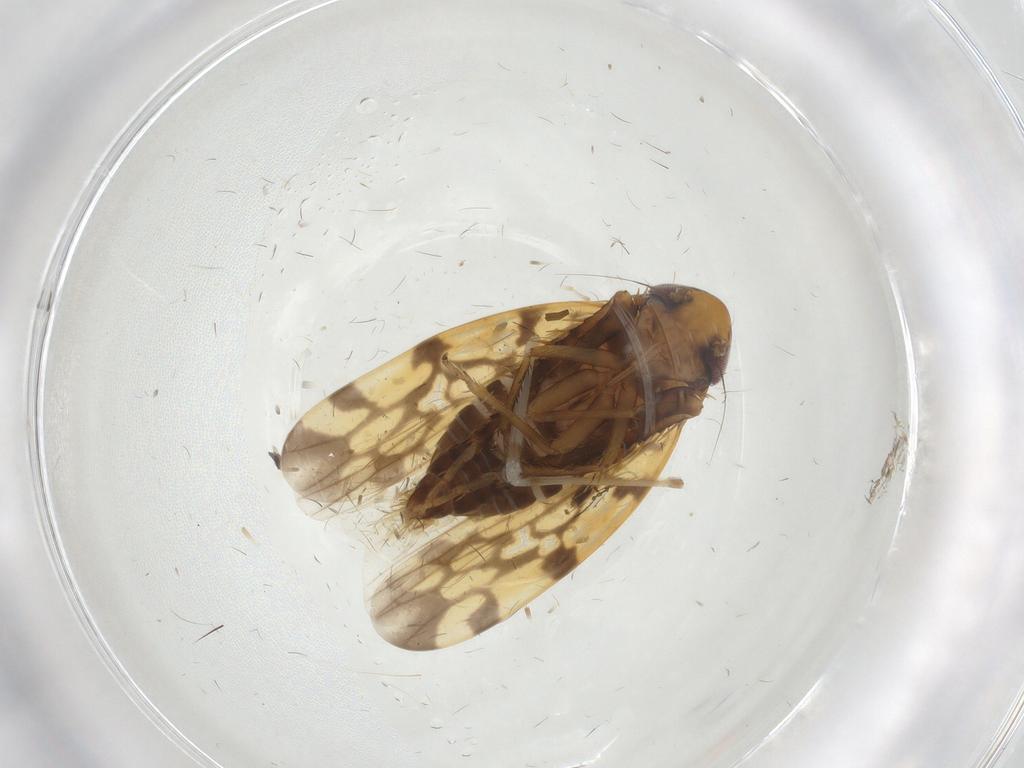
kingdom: Animalia
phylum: Arthropoda
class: Insecta
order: Hemiptera
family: Cicadellidae
